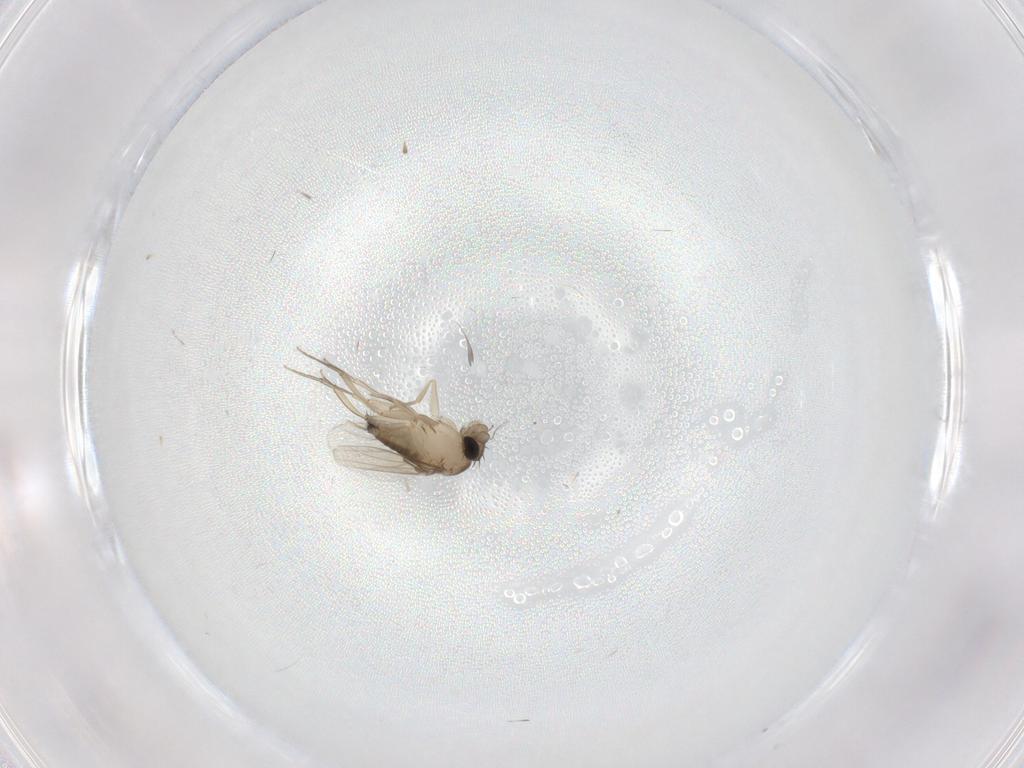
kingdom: Animalia
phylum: Arthropoda
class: Insecta
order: Diptera
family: Phoridae
